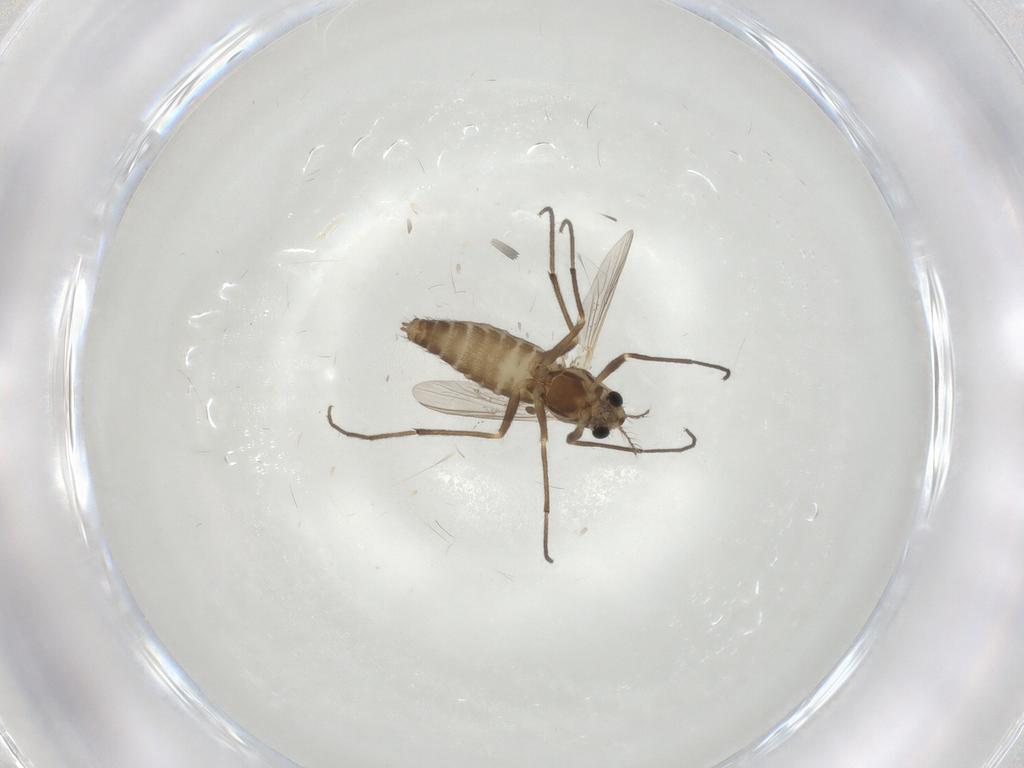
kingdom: Animalia
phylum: Arthropoda
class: Insecta
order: Diptera
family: Chironomidae
